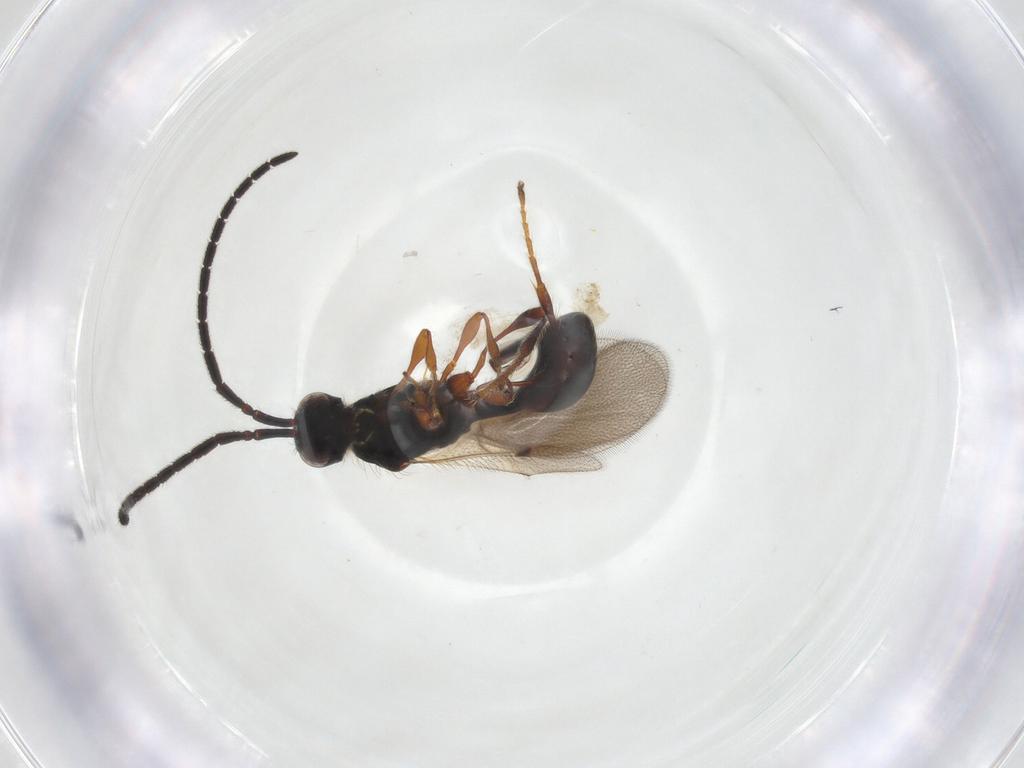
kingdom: Animalia
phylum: Arthropoda
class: Insecta
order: Hymenoptera
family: Diapriidae
